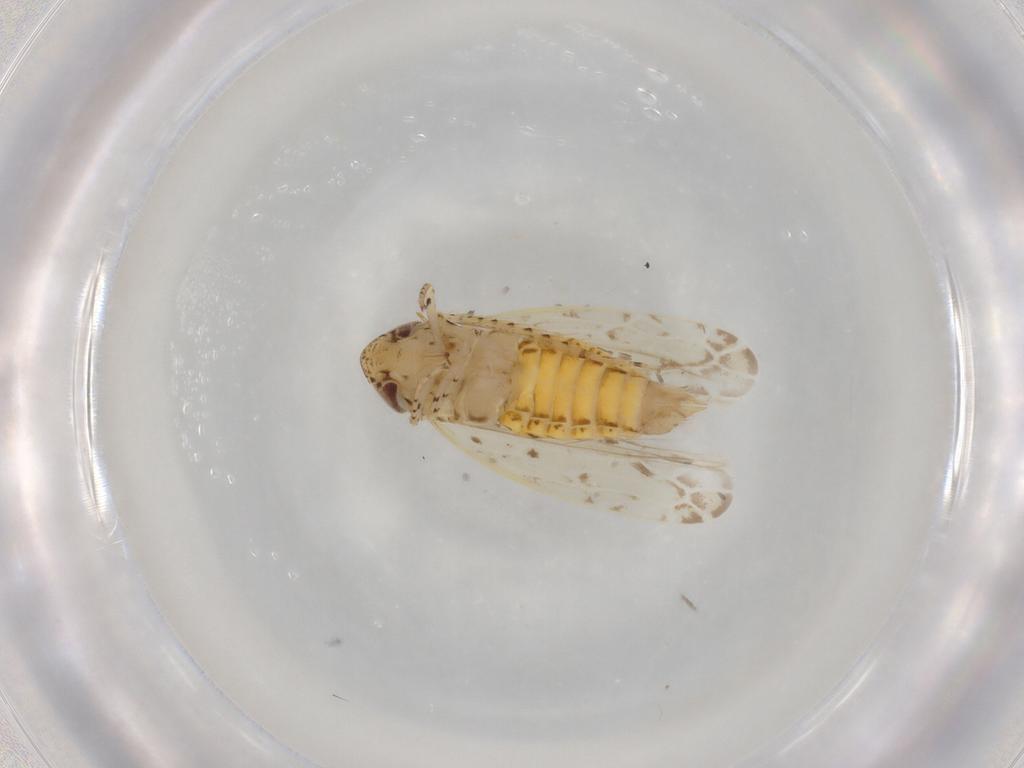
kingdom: Animalia
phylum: Arthropoda
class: Insecta
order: Hemiptera
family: Cicadellidae
